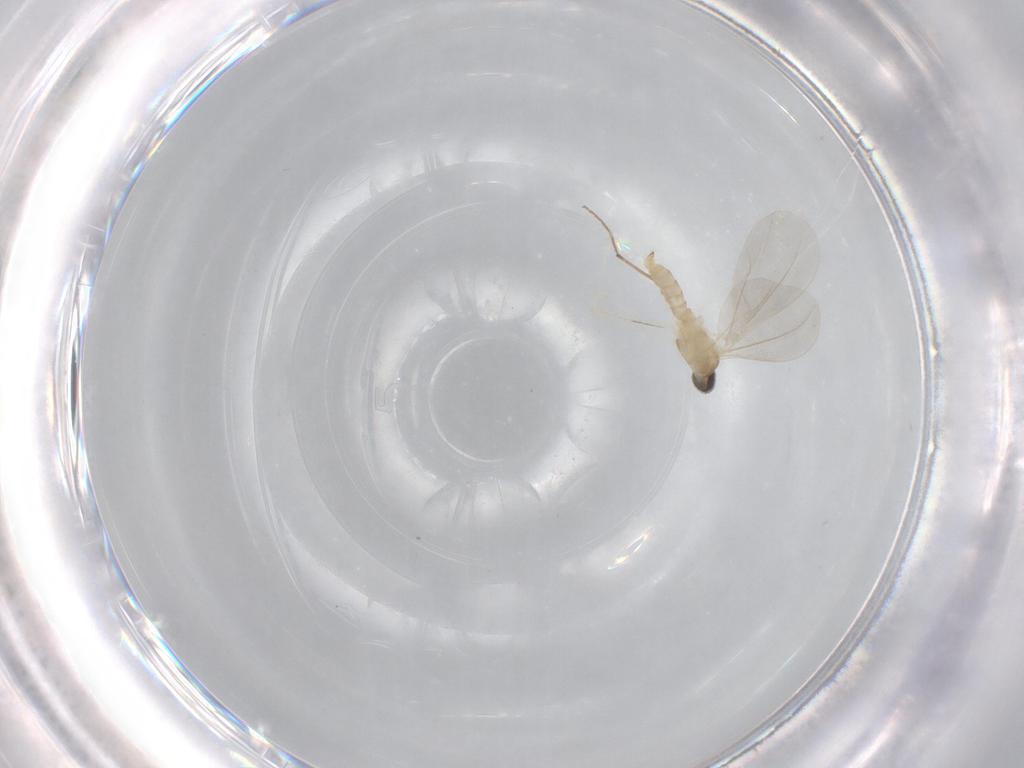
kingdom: Animalia
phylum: Arthropoda
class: Insecta
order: Diptera
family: Cecidomyiidae
